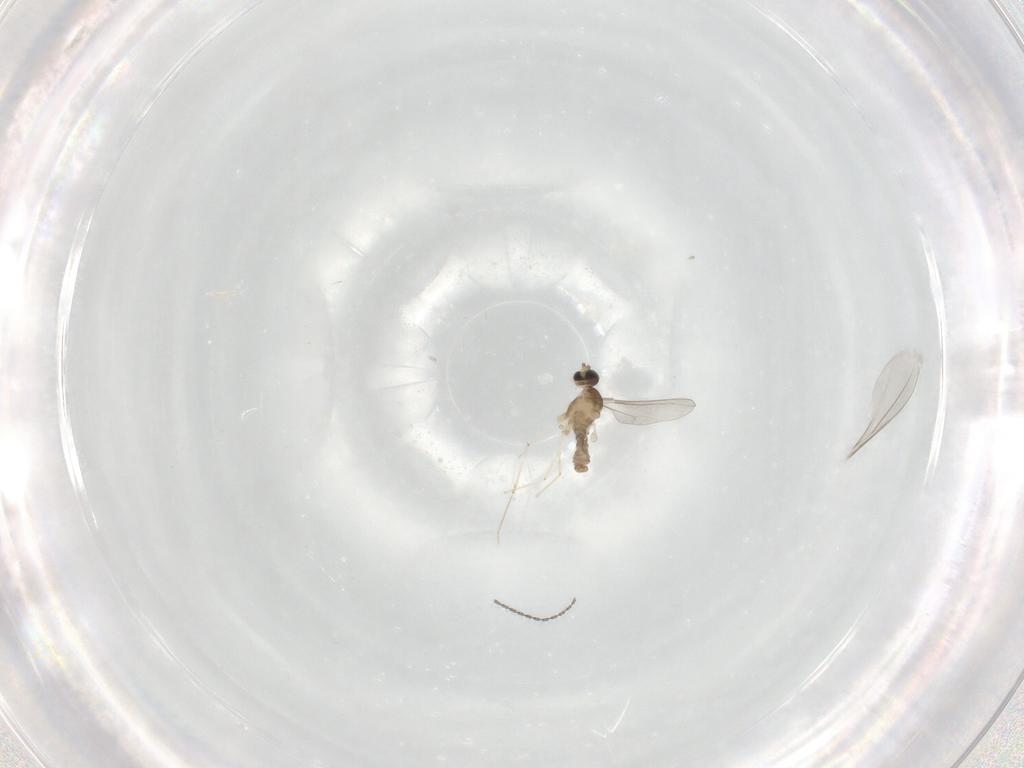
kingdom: Animalia
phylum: Arthropoda
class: Insecta
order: Diptera
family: Cecidomyiidae
